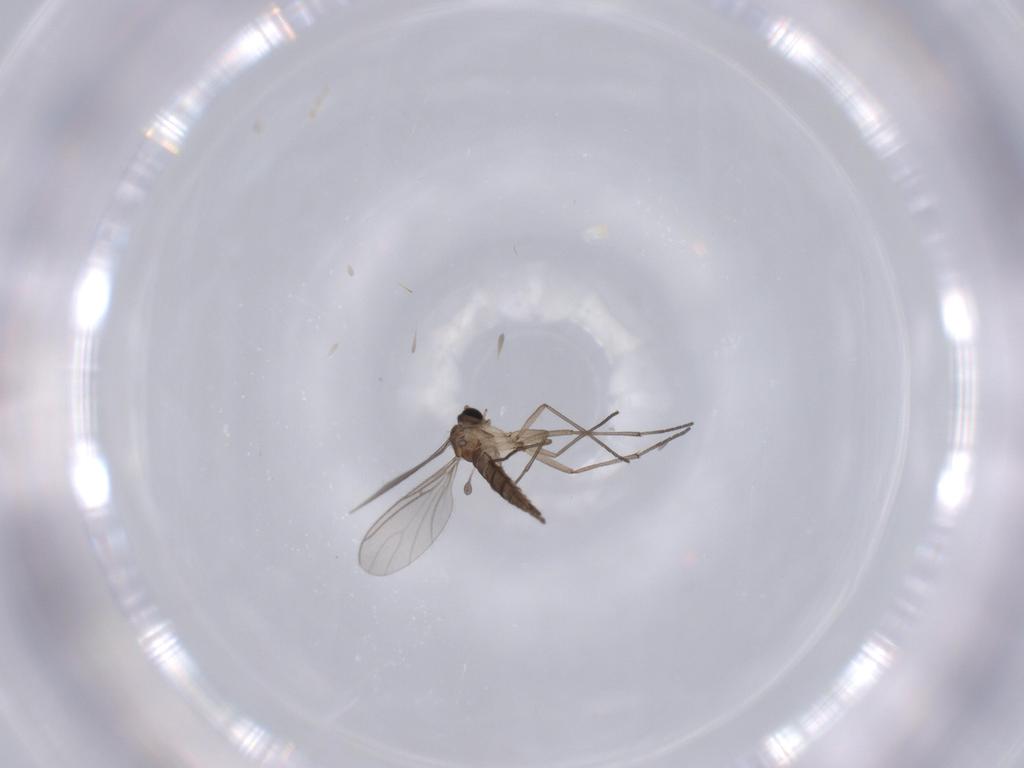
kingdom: Animalia
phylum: Arthropoda
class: Insecta
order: Diptera
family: Sciaridae
